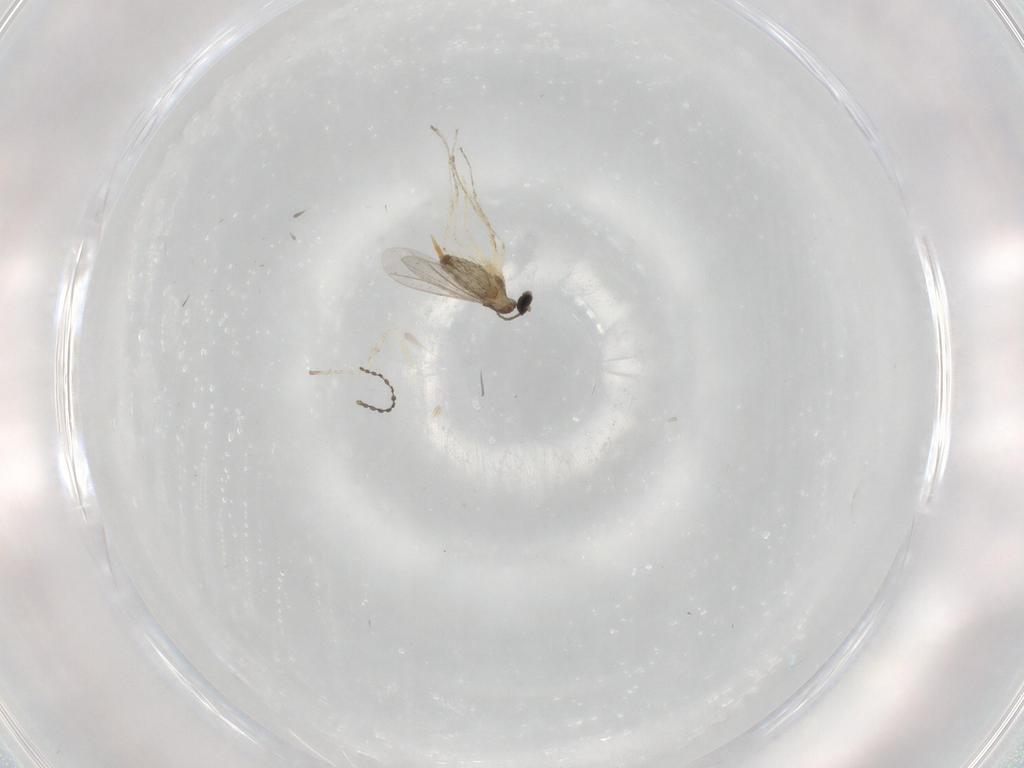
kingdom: Animalia
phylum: Arthropoda
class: Insecta
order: Diptera
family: Cecidomyiidae
